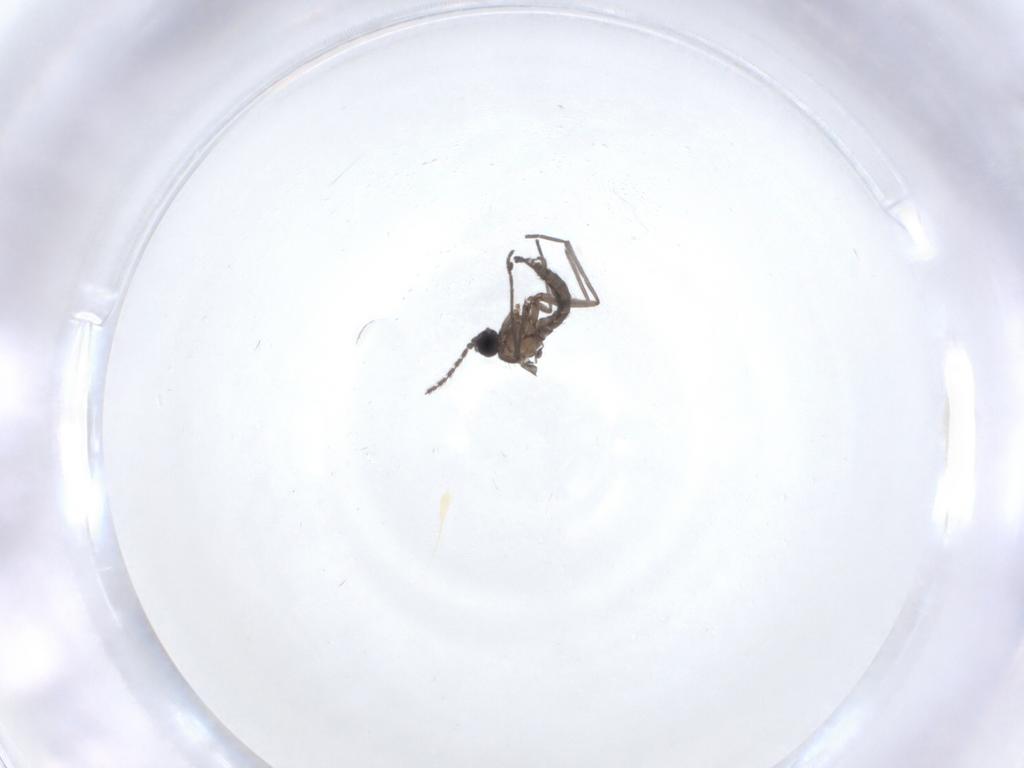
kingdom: Animalia
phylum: Arthropoda
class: Insecta
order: Diptera
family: Sciaridae
